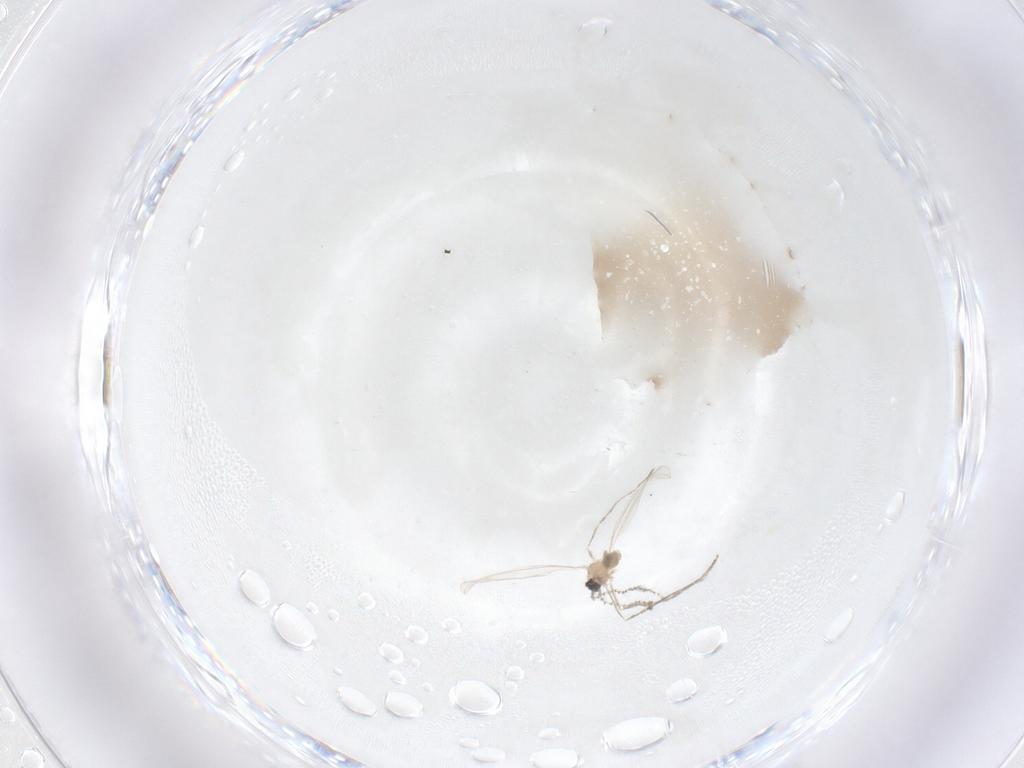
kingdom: Animalia
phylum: Arthropoda
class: Insecta
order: Diptera
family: Cecidomyiidae
